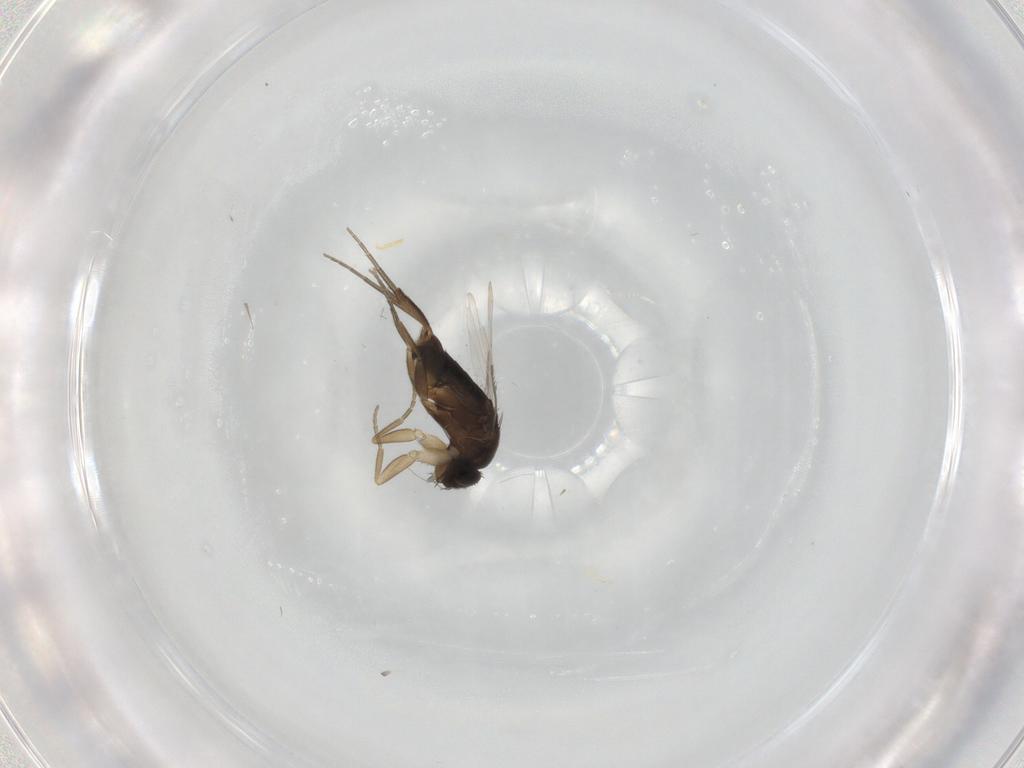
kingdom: Animalia
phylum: Arthropoda
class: Insecta
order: Diptera
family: Phoridae
